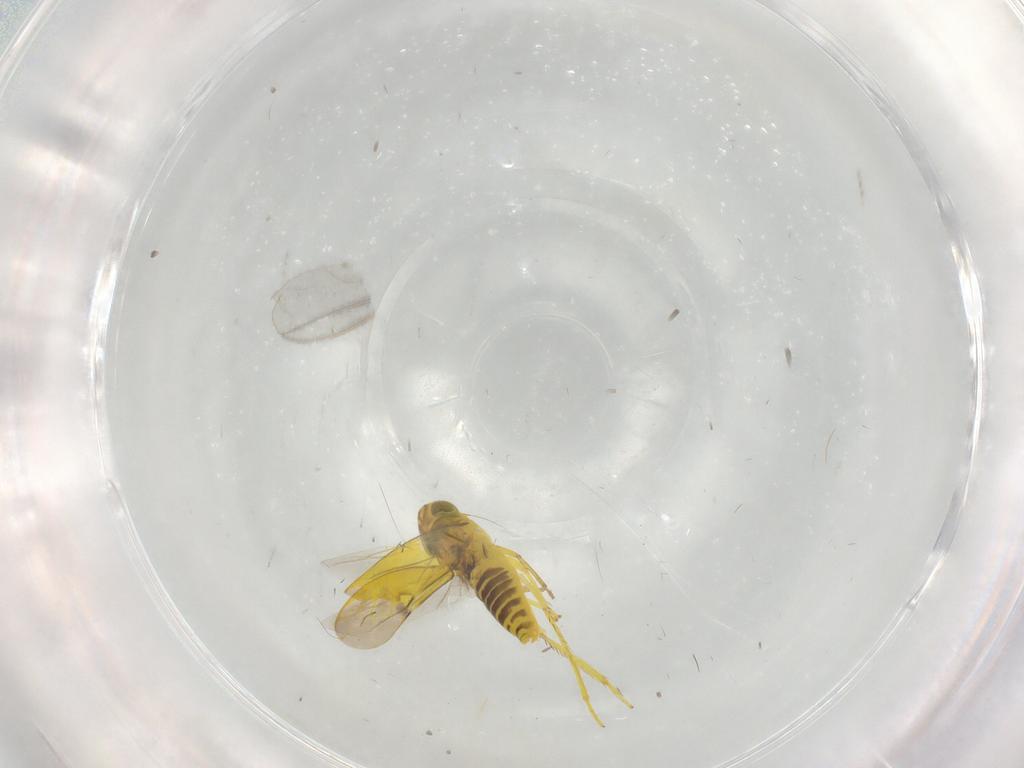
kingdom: Animalia
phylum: Arthropoda
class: Insecta
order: Hemiptera
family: Cicadellidae
